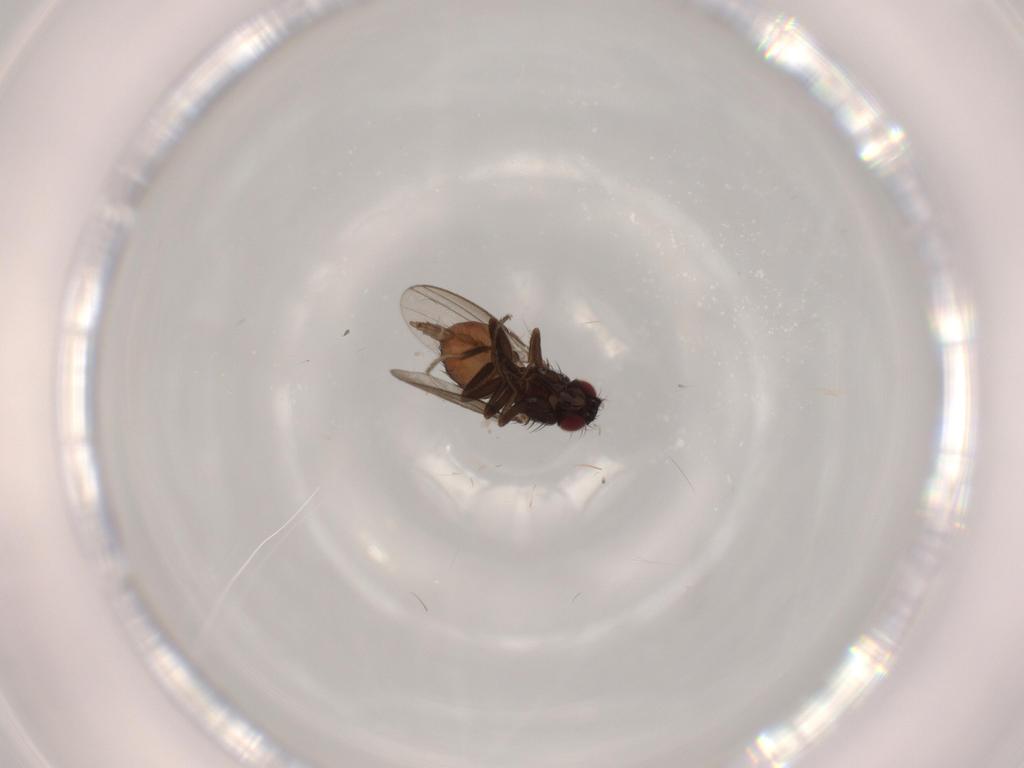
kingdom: Animalia
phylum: Arthropoda
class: Insecta
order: Diptera
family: Milichiidae
